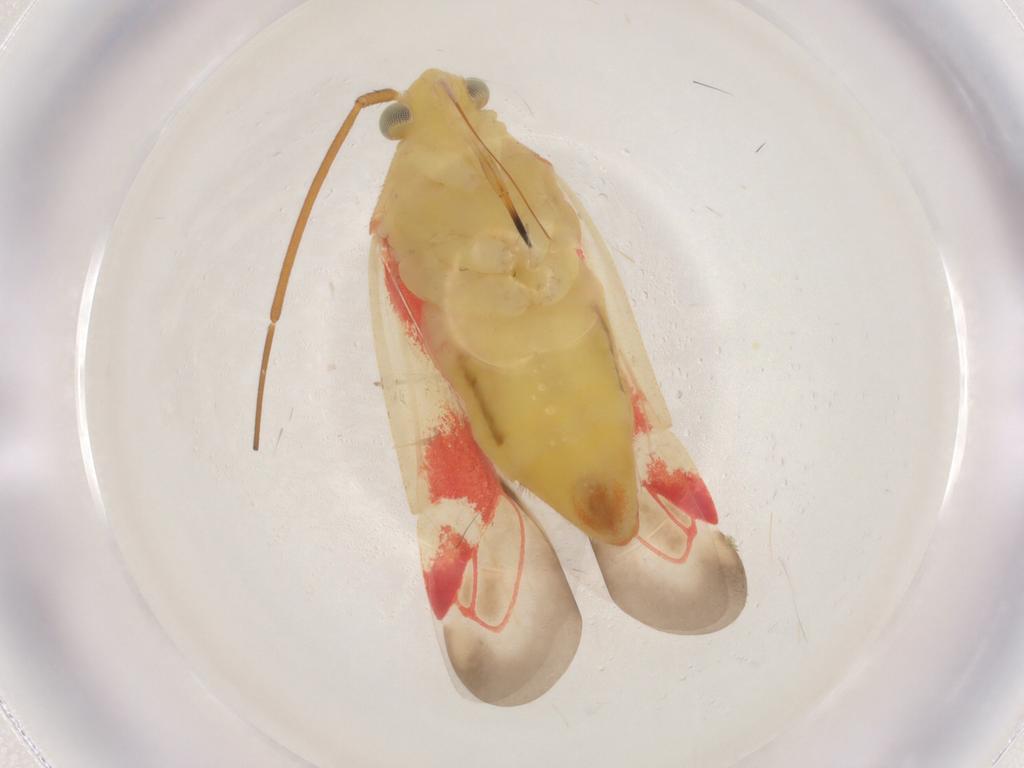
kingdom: Animalia
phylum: Arthropoda
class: Insecta
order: Hemiptera
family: Miridae
